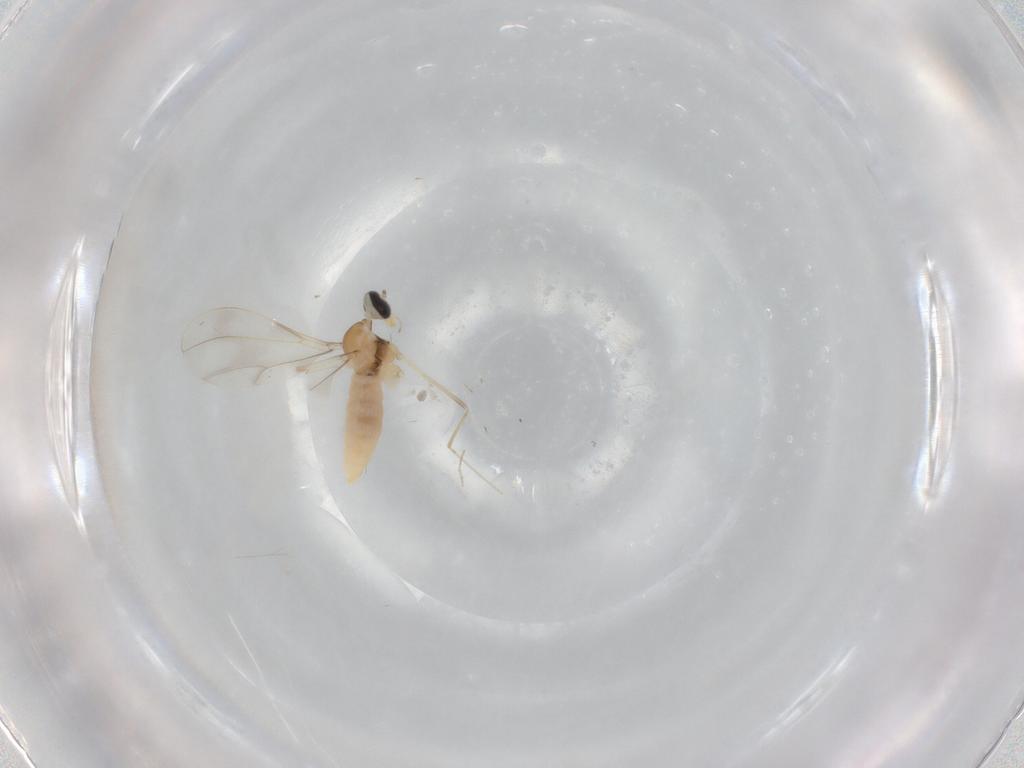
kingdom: Animalia
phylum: Arthropoda
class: Insecta
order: Diptera
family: Cecidomyiidae
